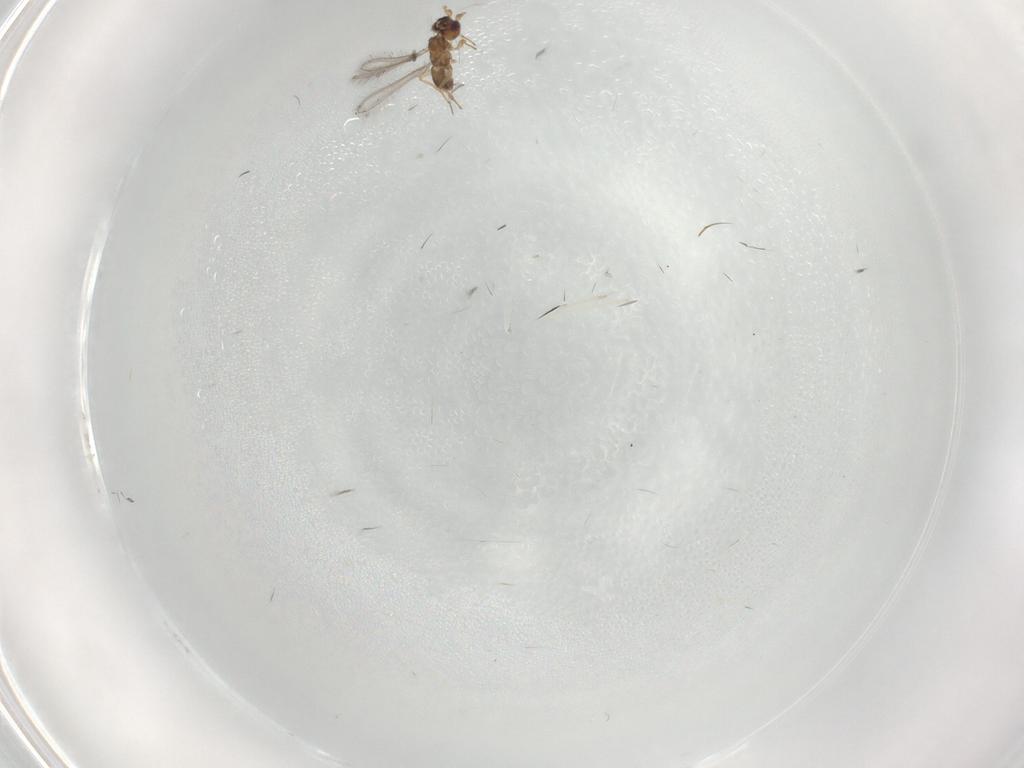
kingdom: Animalia
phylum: Arthropoda
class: Insecta
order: Hymenoptera
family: Mymaridae
